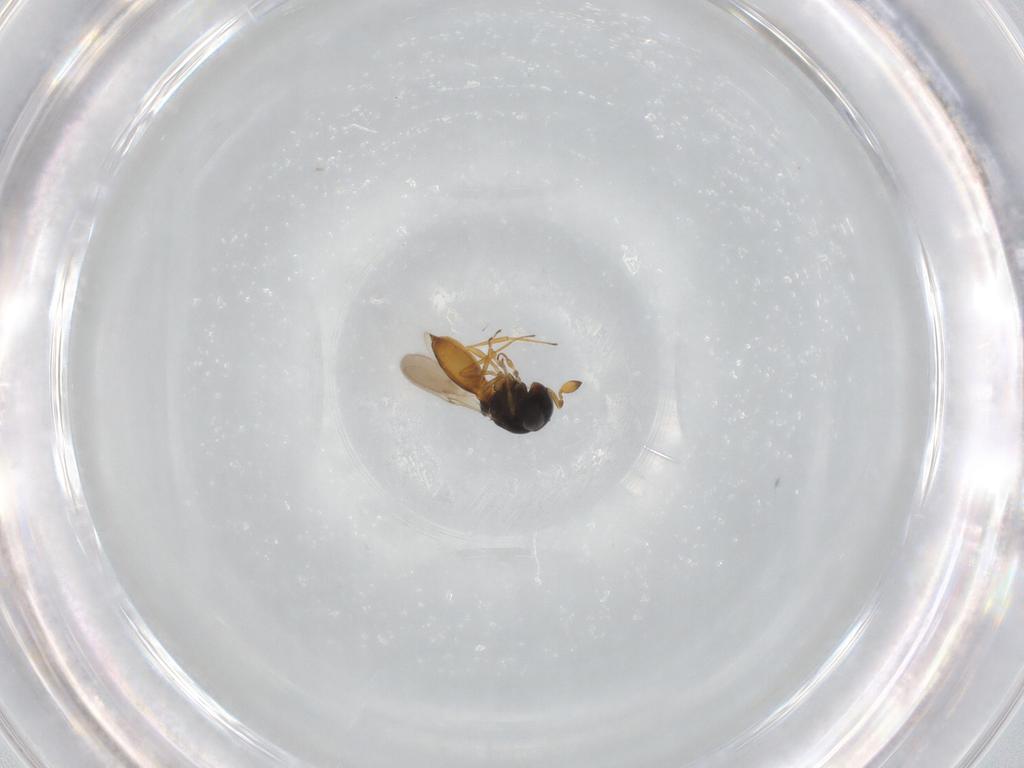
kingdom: Animalia
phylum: Arthropoda
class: Insecta
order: Hymenoptera
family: Scelionidae
